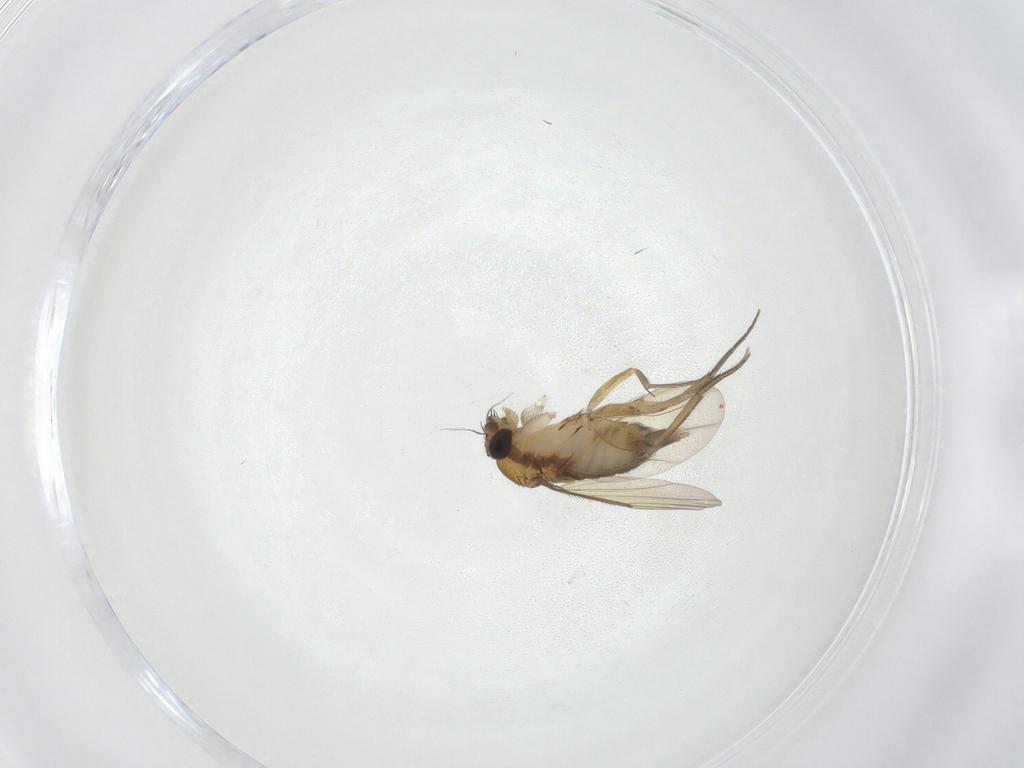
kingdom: Animalia
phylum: Arthropoda
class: Insecta
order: Diptera
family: Phoridae
